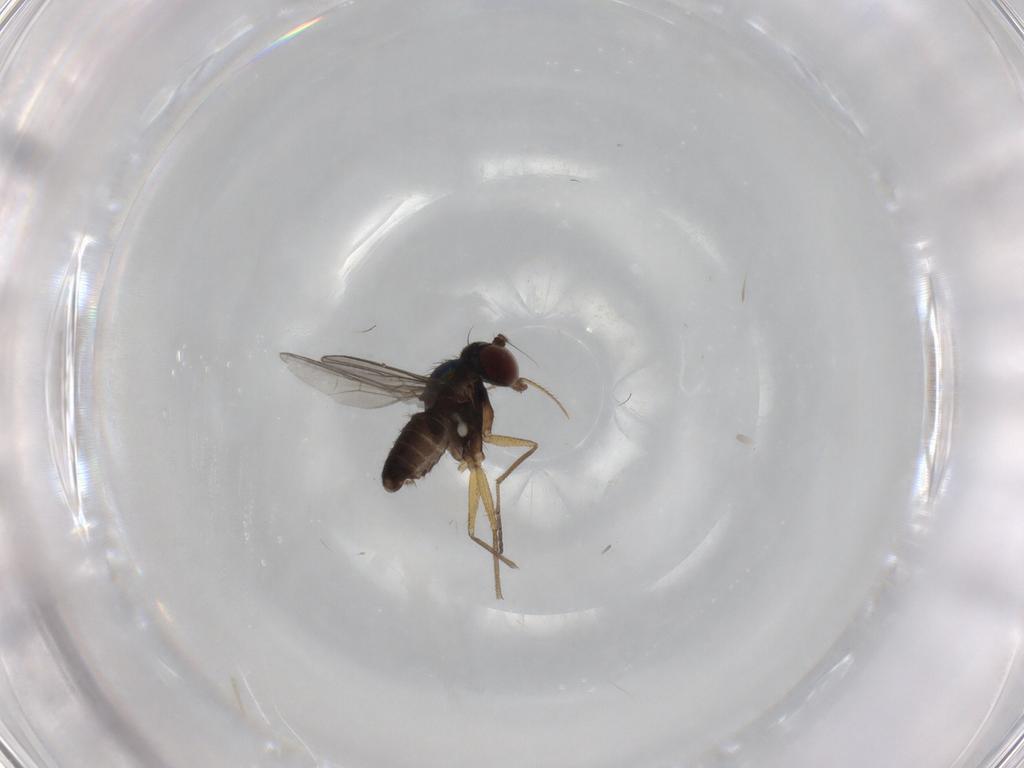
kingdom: Animalia
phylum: Arthropoda
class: Insecta
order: Diptera
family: Dolichopodidae
